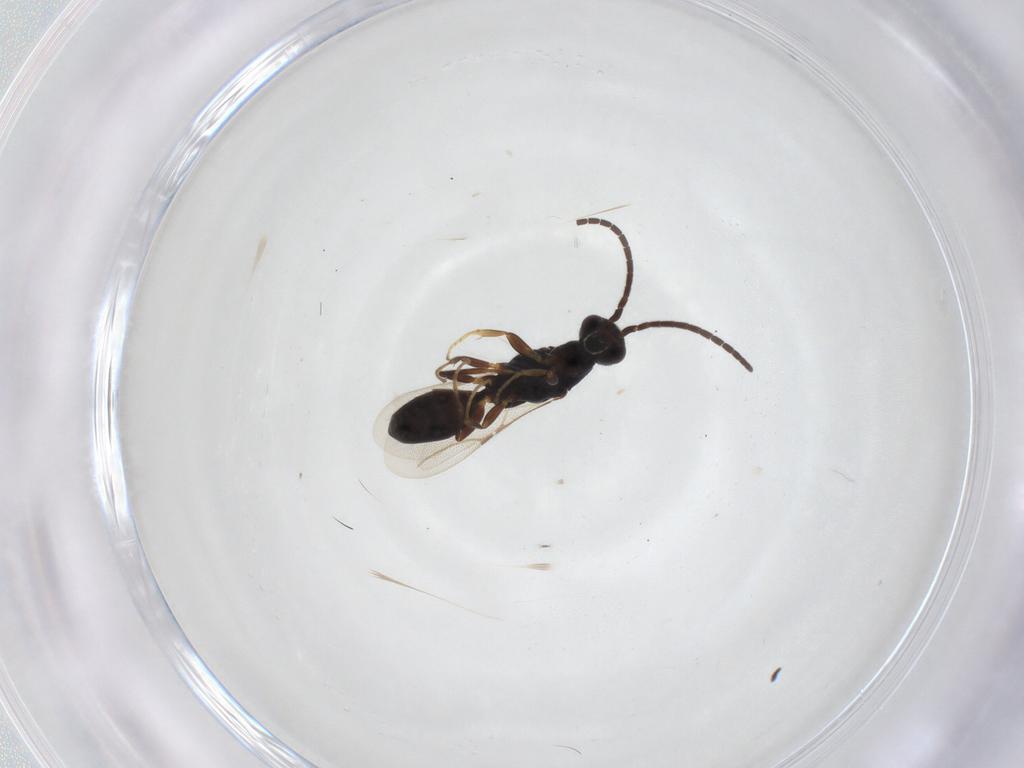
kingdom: Animalia
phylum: Arthropoda
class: Insecta
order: Hymenoptera
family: Bethylidae
